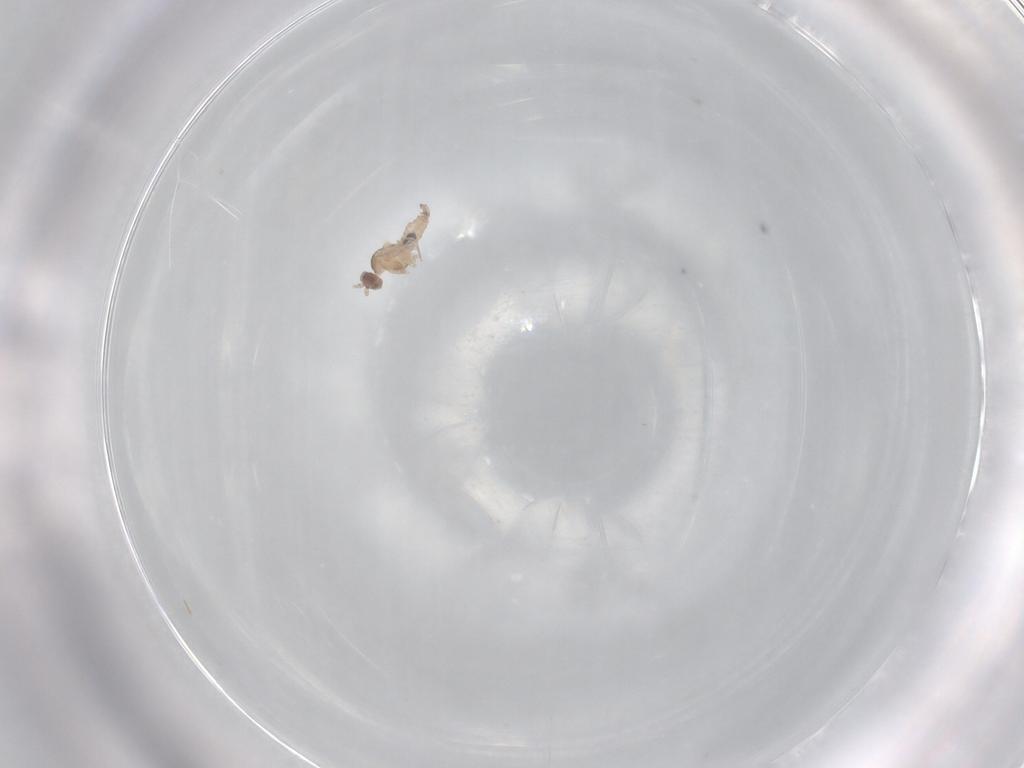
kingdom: Animalia
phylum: Arthropoda
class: Insecta
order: Diptera
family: Cecidomyiidae
